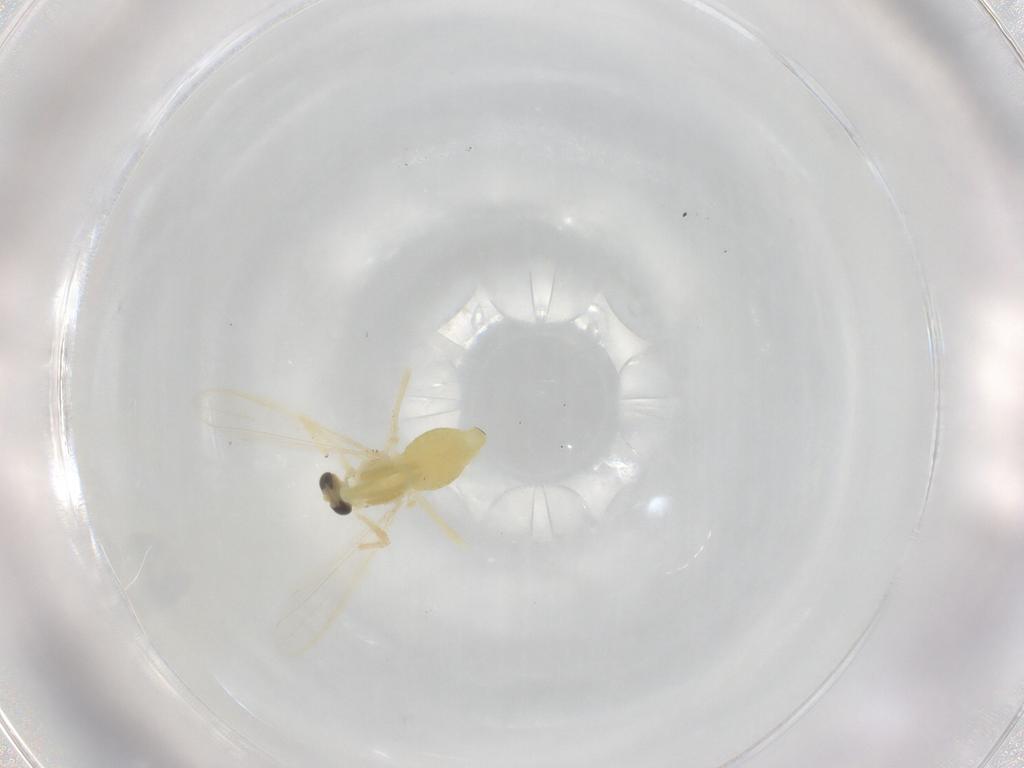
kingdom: Animalia
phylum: Arthropoda
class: Insecta
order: Diptera
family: Chironomidae
